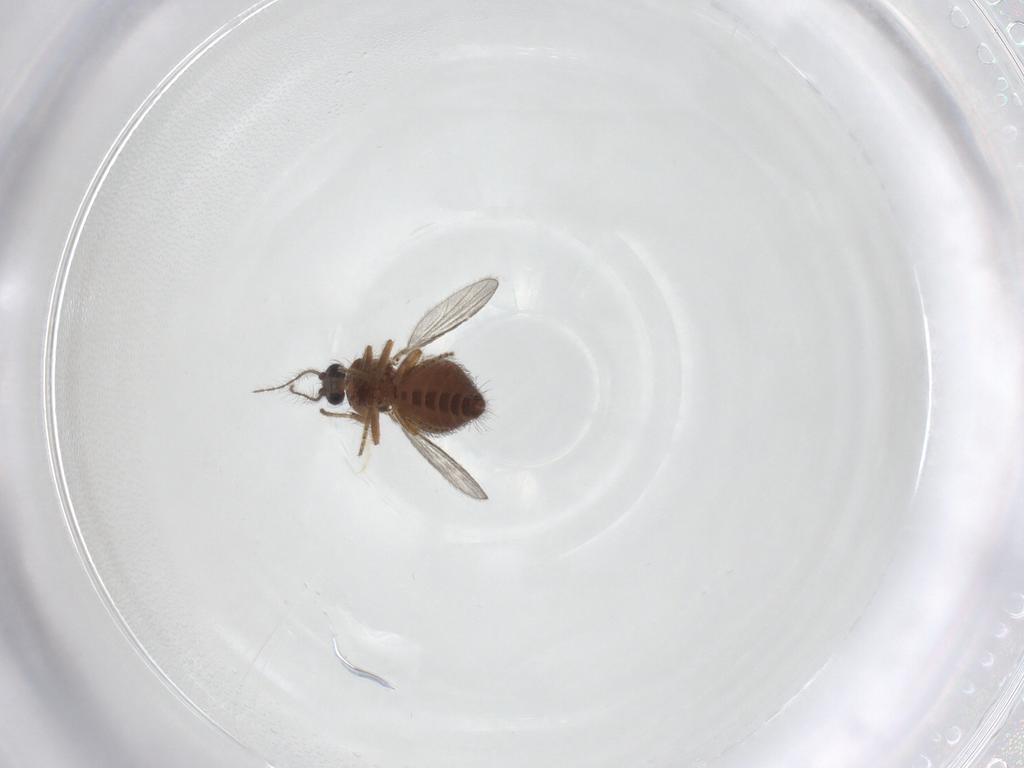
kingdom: Animalia
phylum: Arthropoda
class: Insecta
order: Diptera
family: Ceratopogonidae
